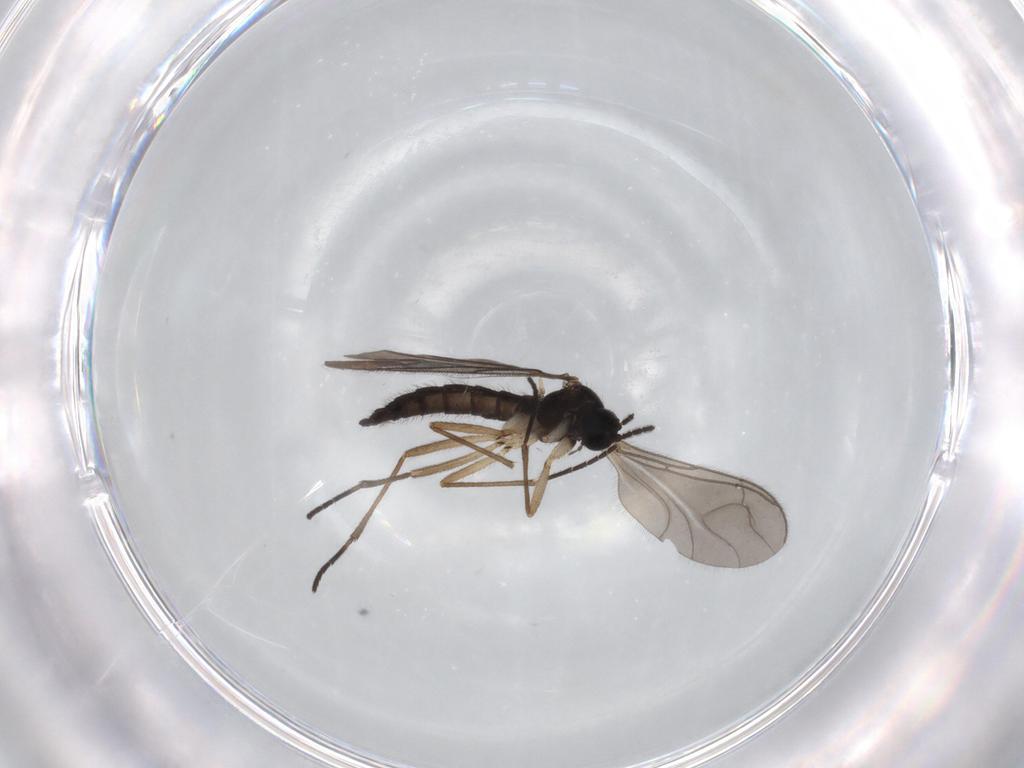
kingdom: Animalia
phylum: Arthropoda
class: Insecta
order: Diptera
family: Sciaridae
